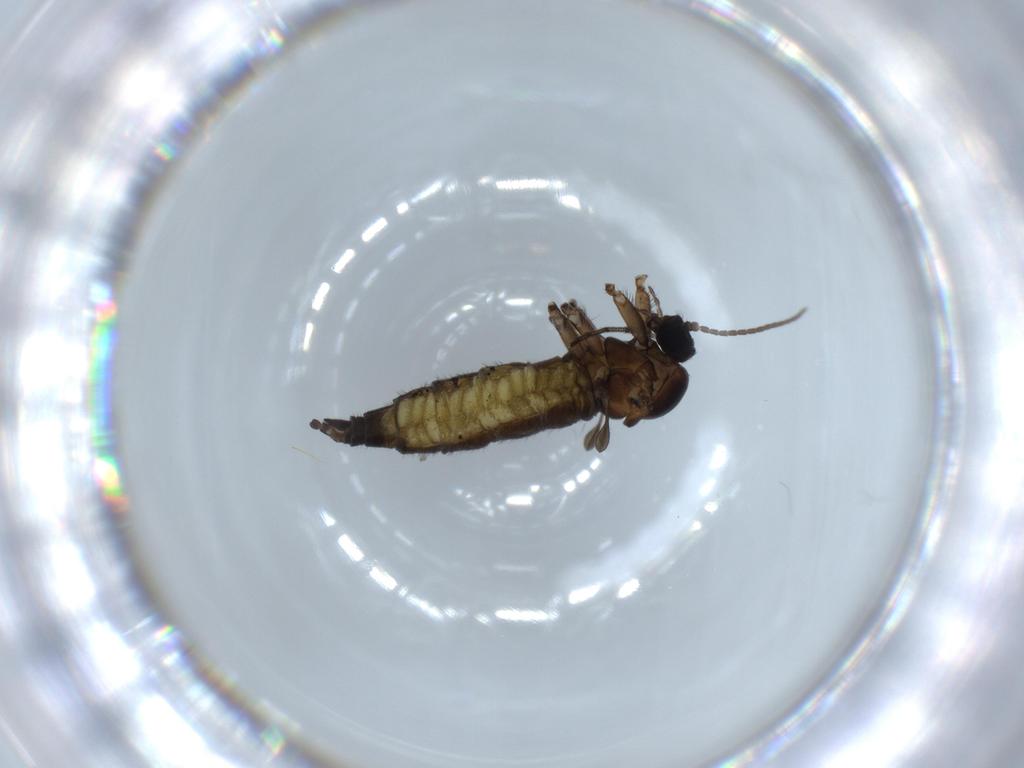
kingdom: Animalia
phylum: Arthropoda
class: Insecta
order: Diptera
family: Sciaridae
